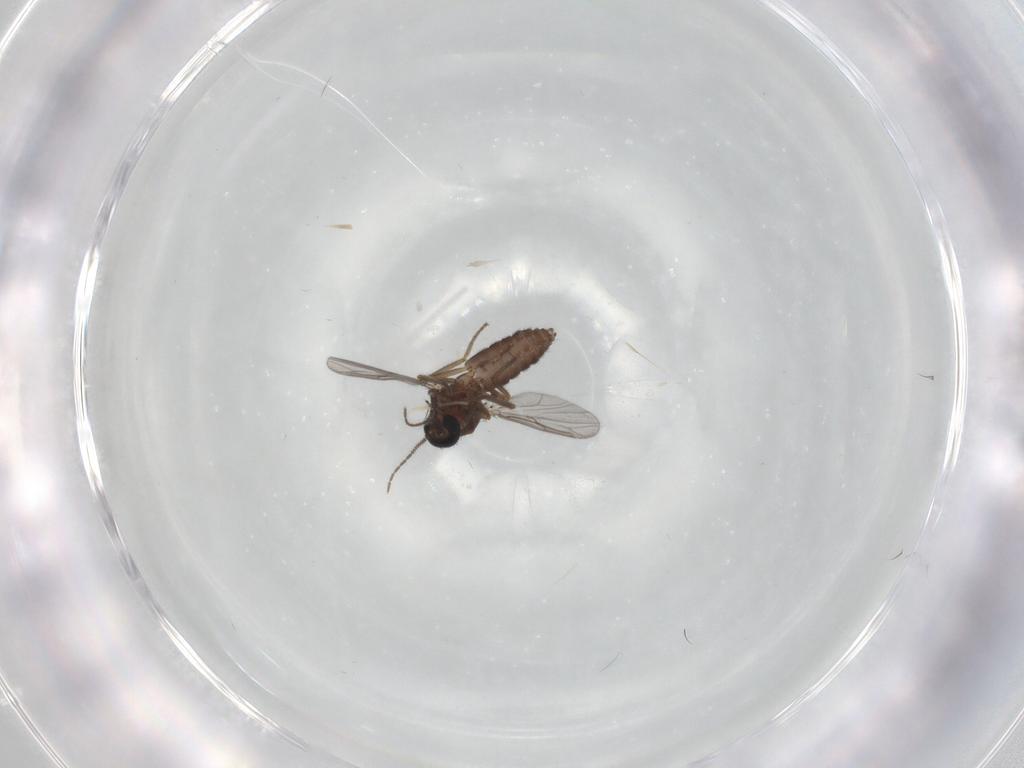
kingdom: Animalia
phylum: Arthropoda
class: Insecta
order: Diptera
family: Ceratopogonidae
